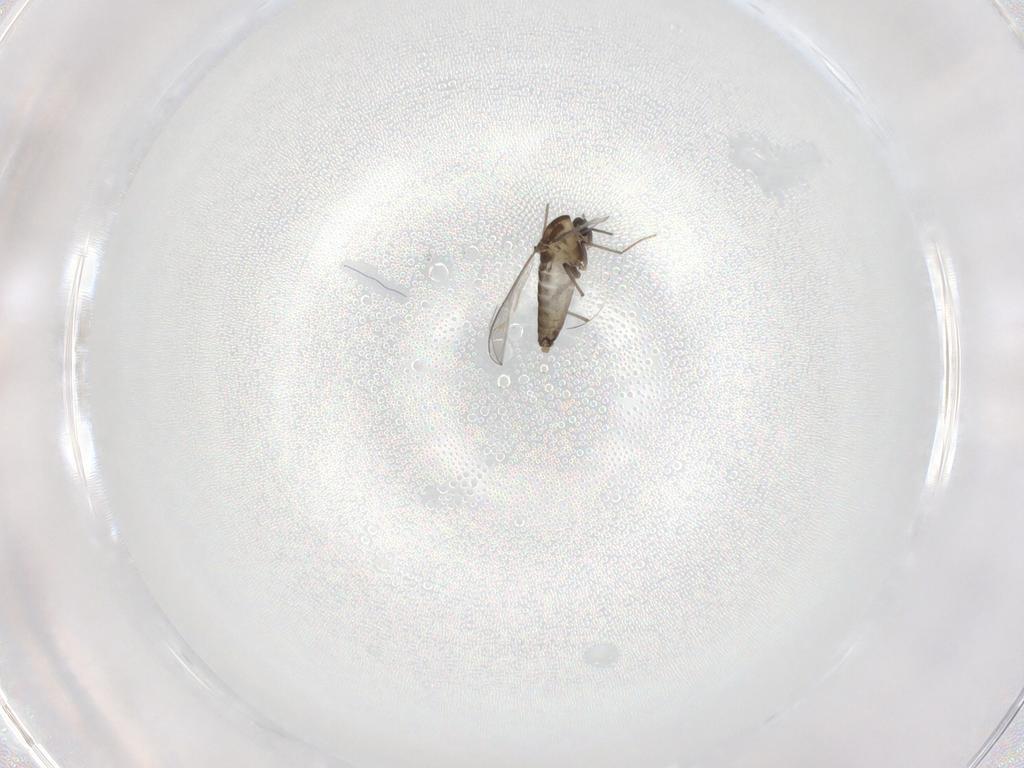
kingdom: Animalia
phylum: Arthropoda
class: Insecta
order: Diptera
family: Chironomidae
